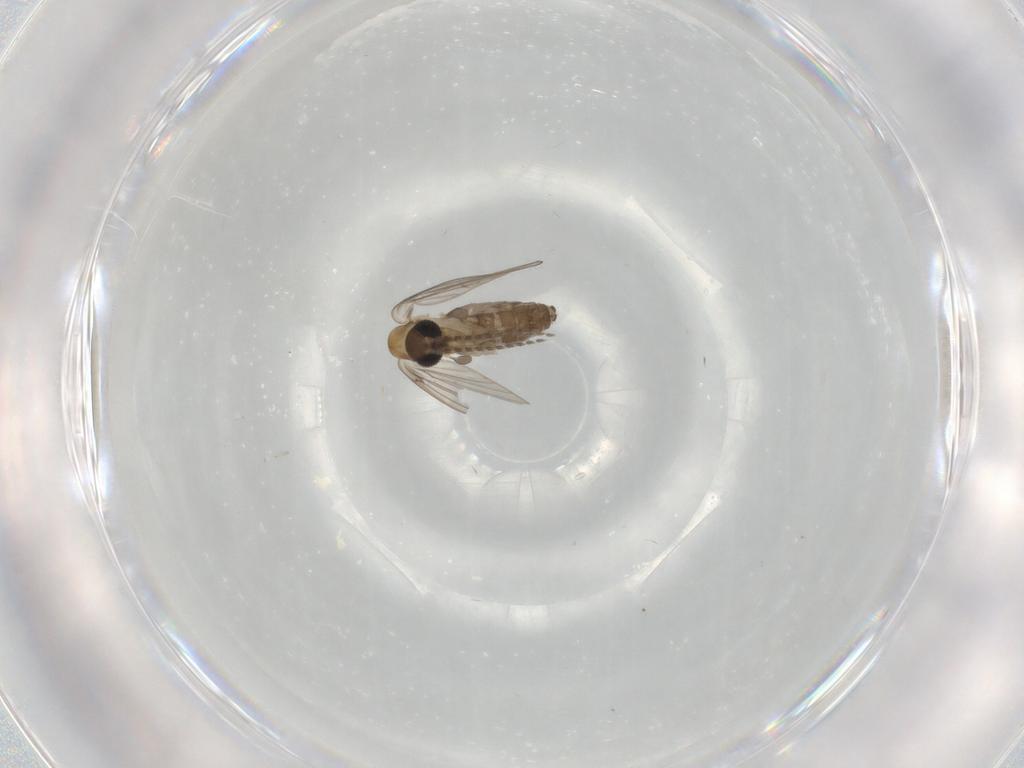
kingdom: Animalia
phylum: Arthropoda
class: Insecta
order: Diptera
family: Psychodidae
